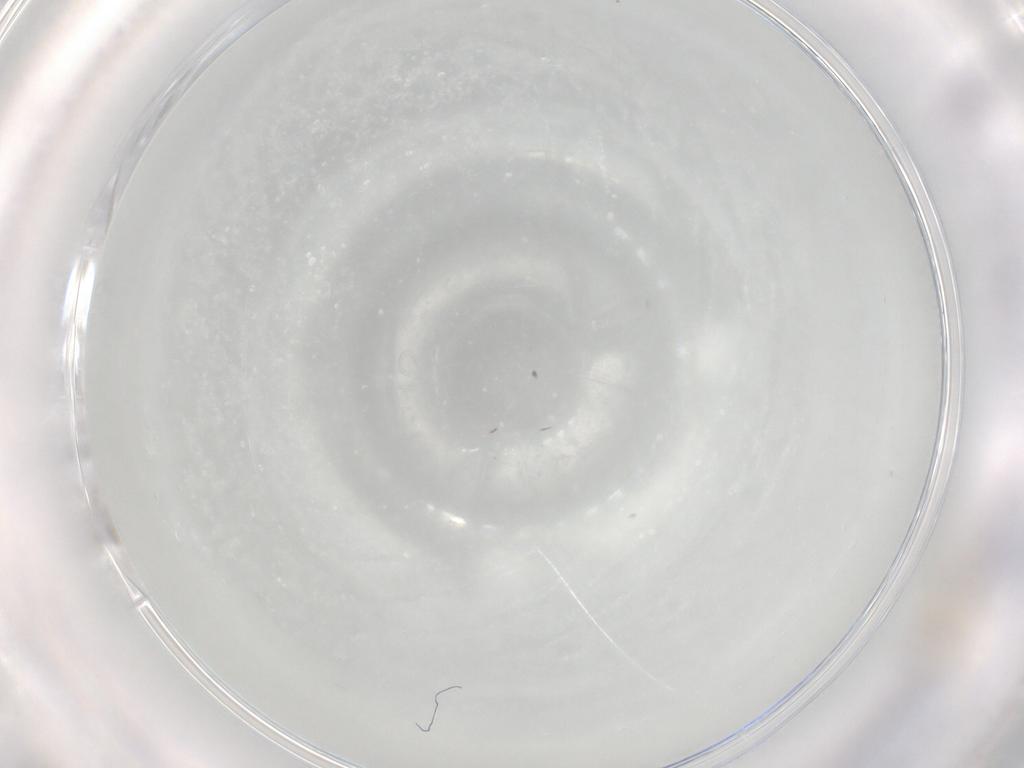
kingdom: Animalia
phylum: Arthropoda
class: Insecta
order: Diptera
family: Chironomidae
